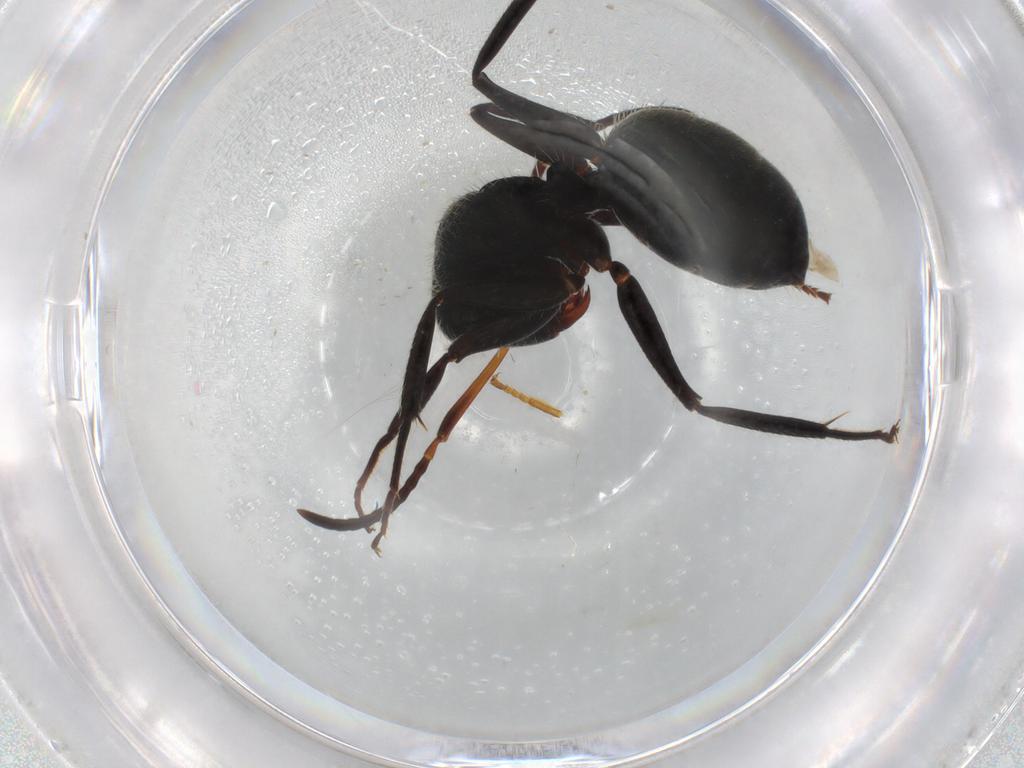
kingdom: Animalia
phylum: Arthropoda
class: Insecta
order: Hymenoptera
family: Formicidae
